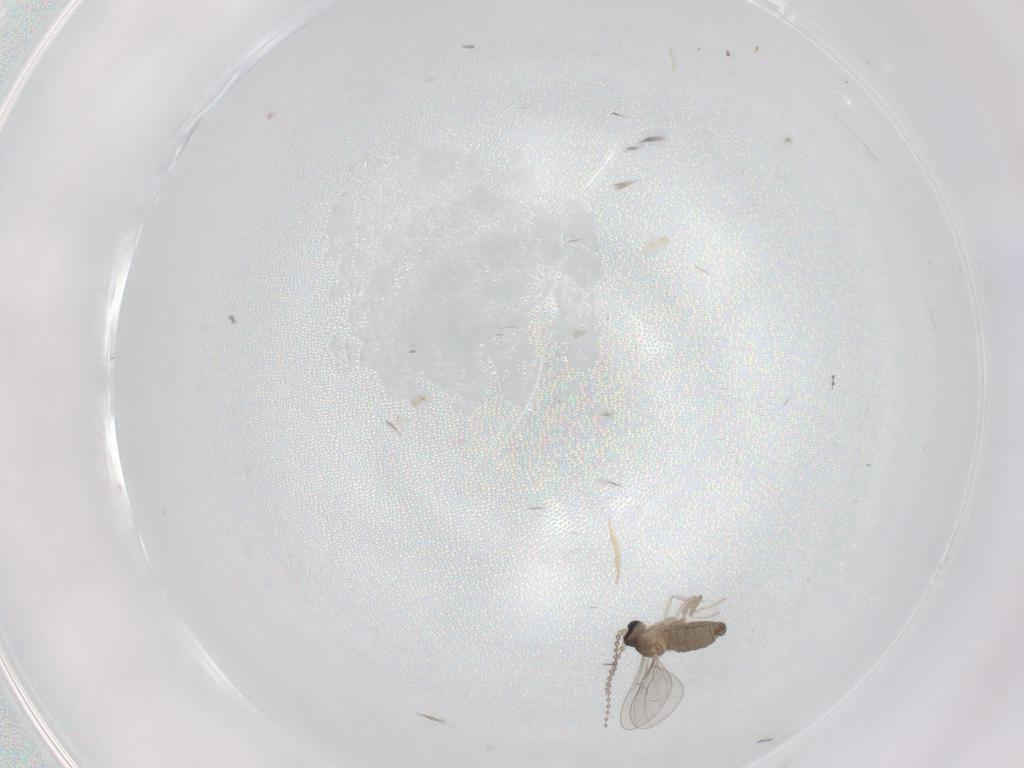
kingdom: Animalia
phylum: Arthropoda
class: Insecta
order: Diptera
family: Cecidomyiidae
